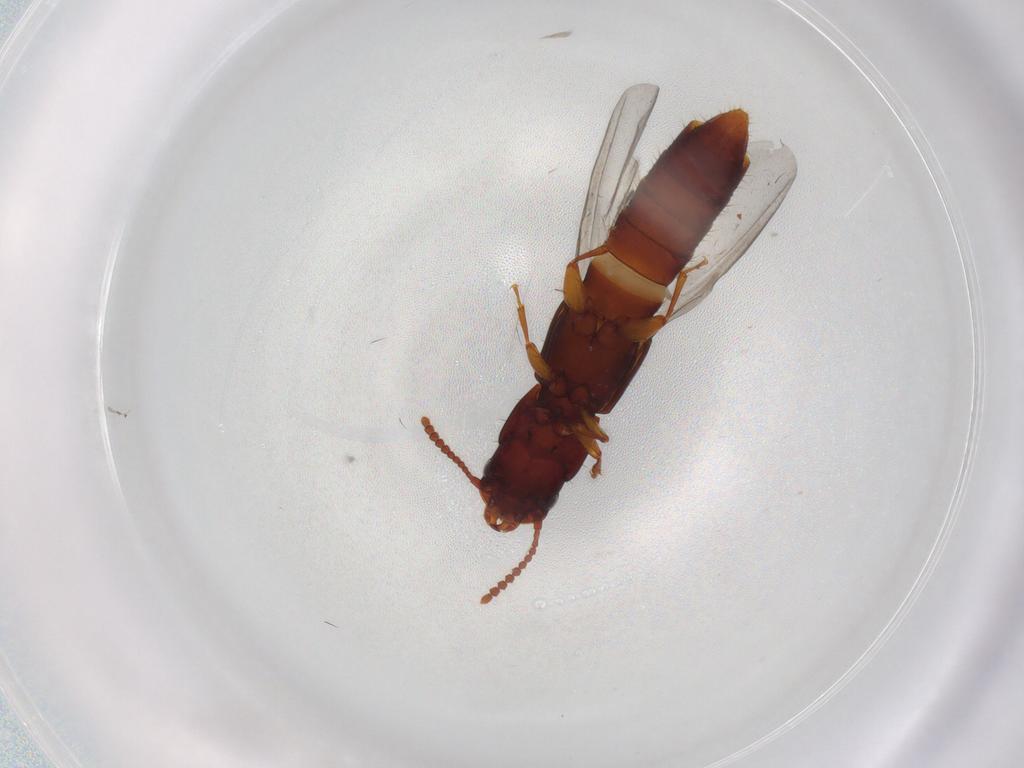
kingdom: Animalia
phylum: Arthropoda
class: Insecta
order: Coleoptera
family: Staphylinidae
